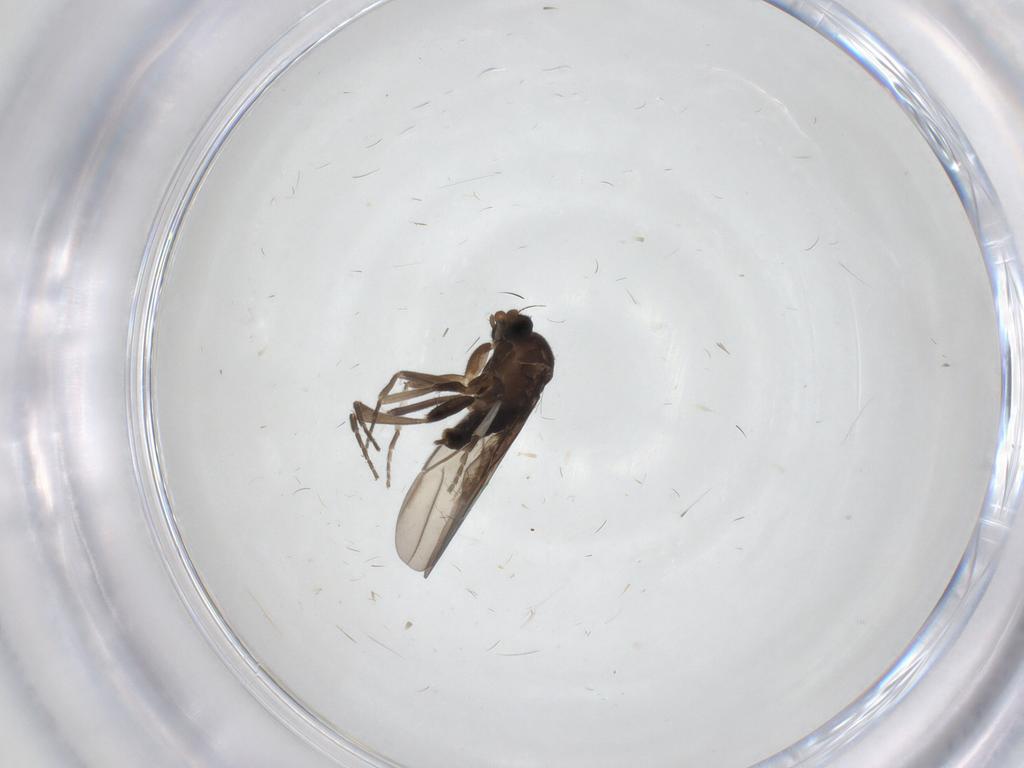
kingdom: Animalia
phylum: Arthropoda
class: Insecta
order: Diptera
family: Phoridae
